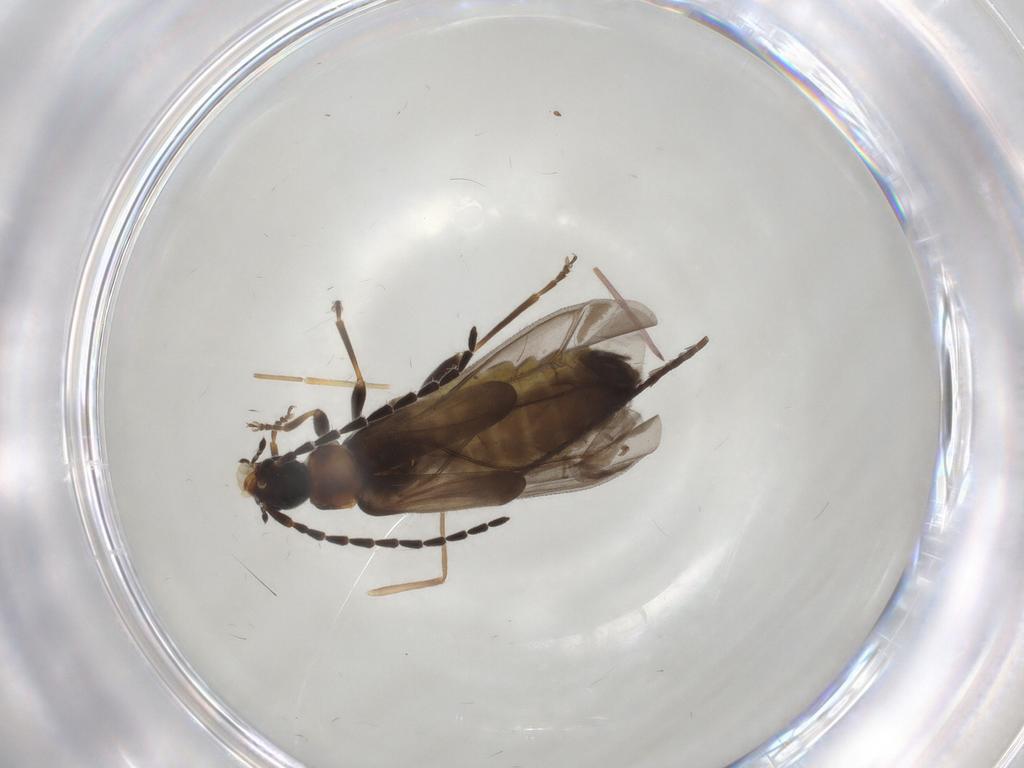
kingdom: Animalia
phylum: Arthropoda
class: Insecta
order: Coleoptera
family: Cantharidae
